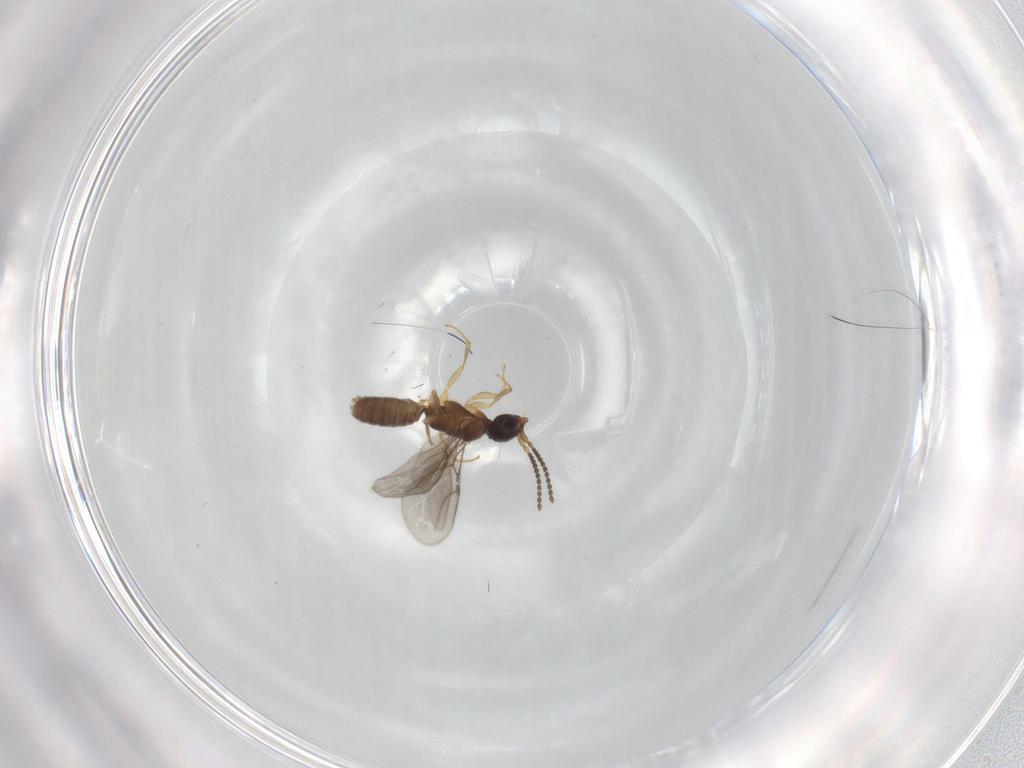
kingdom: Animalia
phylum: Arthropoda
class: Insecta
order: Hymenoptera
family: Bethylidae
